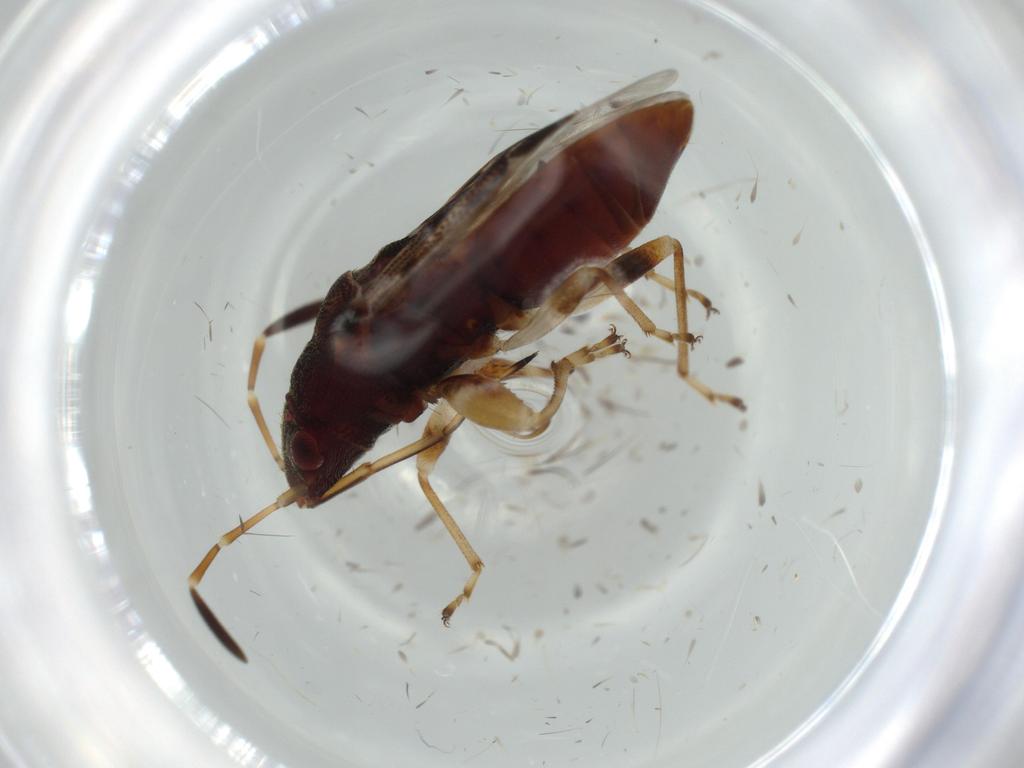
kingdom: Animalia
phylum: Arthropoda
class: Insecta
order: Hemiptera
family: Rhyparochromidae
